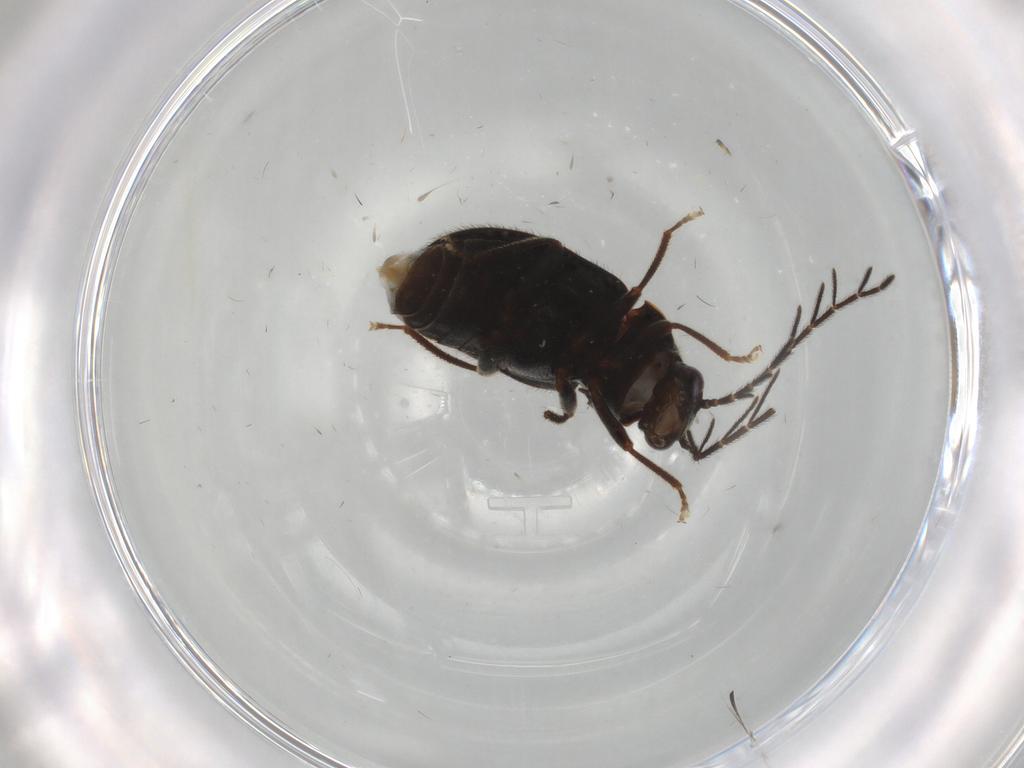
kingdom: Animalia
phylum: Arthropoda
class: Insecta
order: Coleoptera
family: Ptilodactylidae
